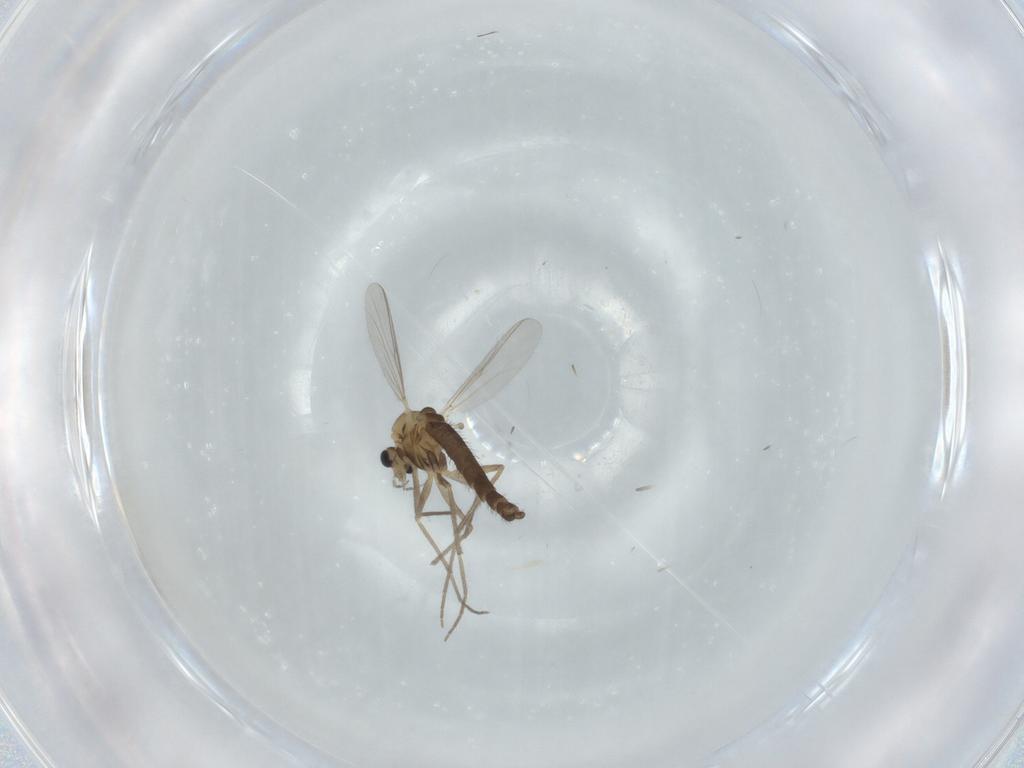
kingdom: Animalia
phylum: Arthropoda
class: Insecta
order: Diptera
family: Chironomidae
